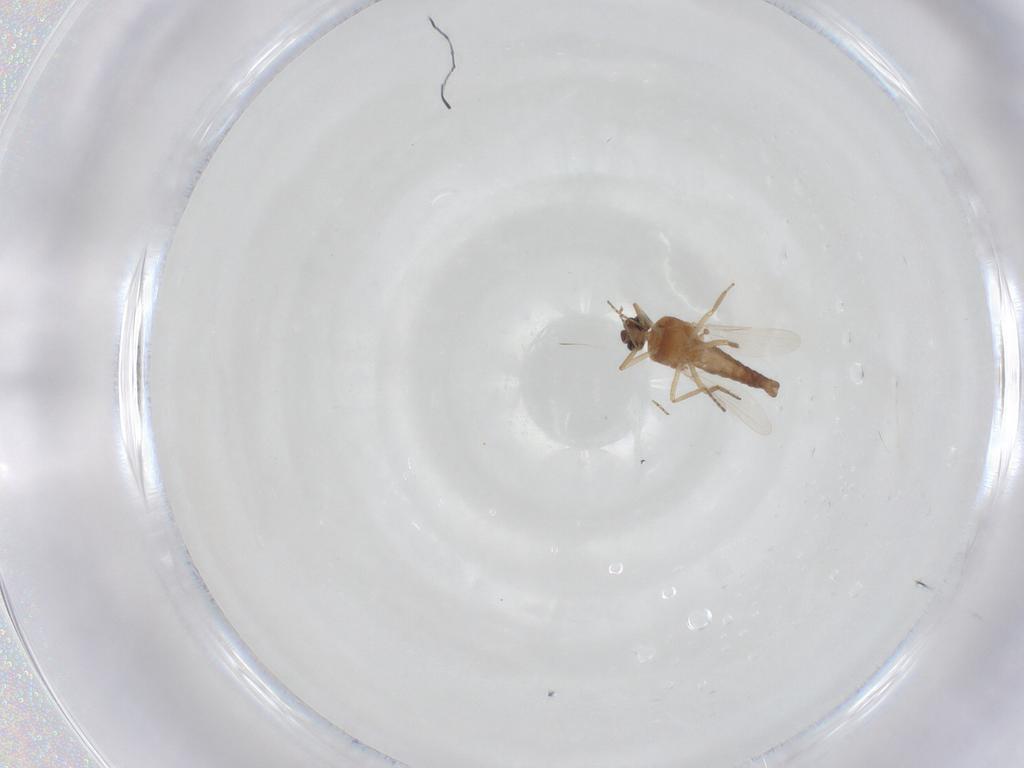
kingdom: Animalia
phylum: Arthropoda
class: Insecta
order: Diptera
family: Ceratopogonidae
